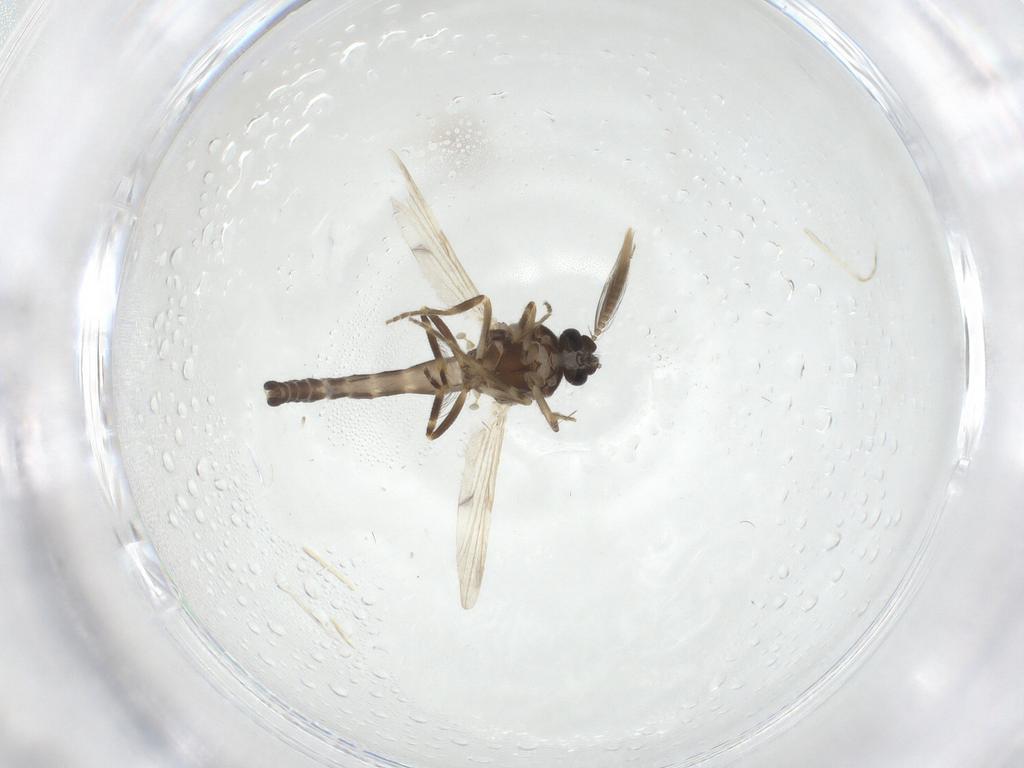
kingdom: Animalia
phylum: Arthropoda
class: Insecta
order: Diptera
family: Ceratopogonidae
